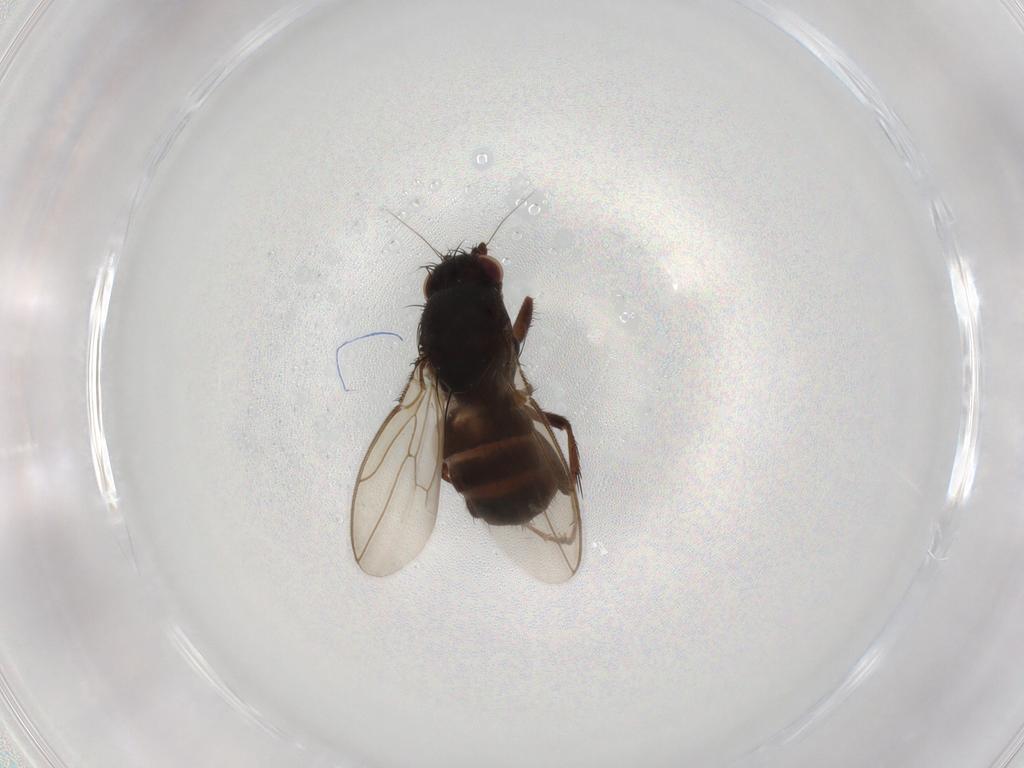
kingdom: Animalia
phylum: Arthropoda
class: Insecta
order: Diptera
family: Sphaeroceridae
